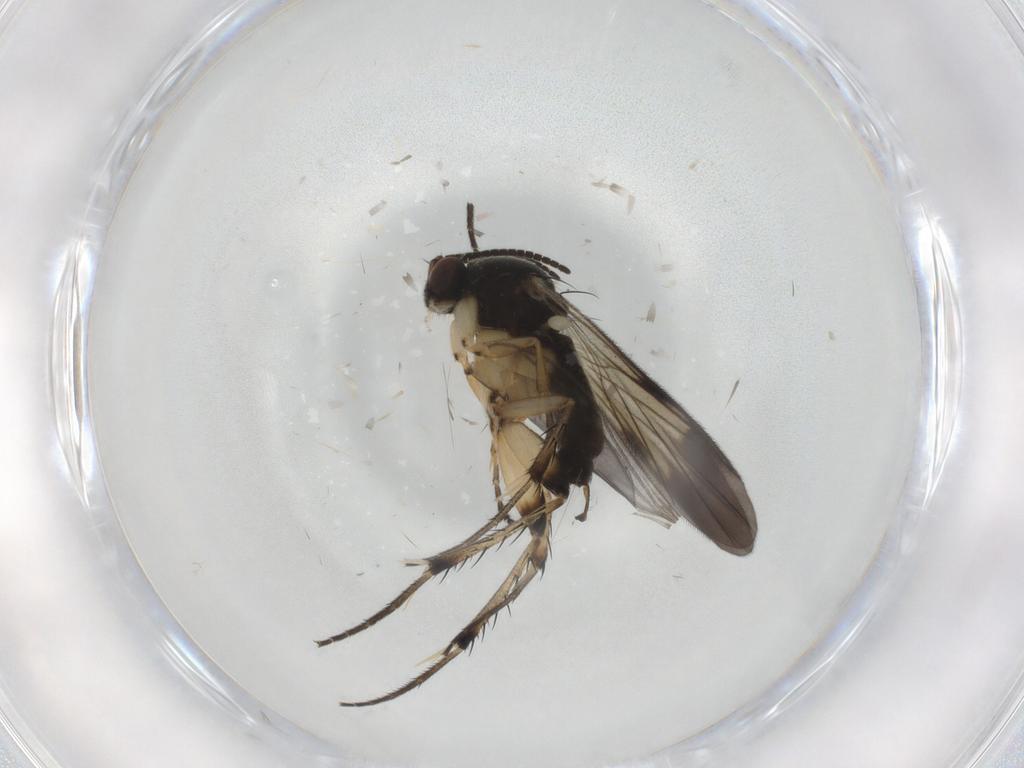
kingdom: Animalia
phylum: Arthropoda
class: Insecta
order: Diptera
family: Mycetophilidae
